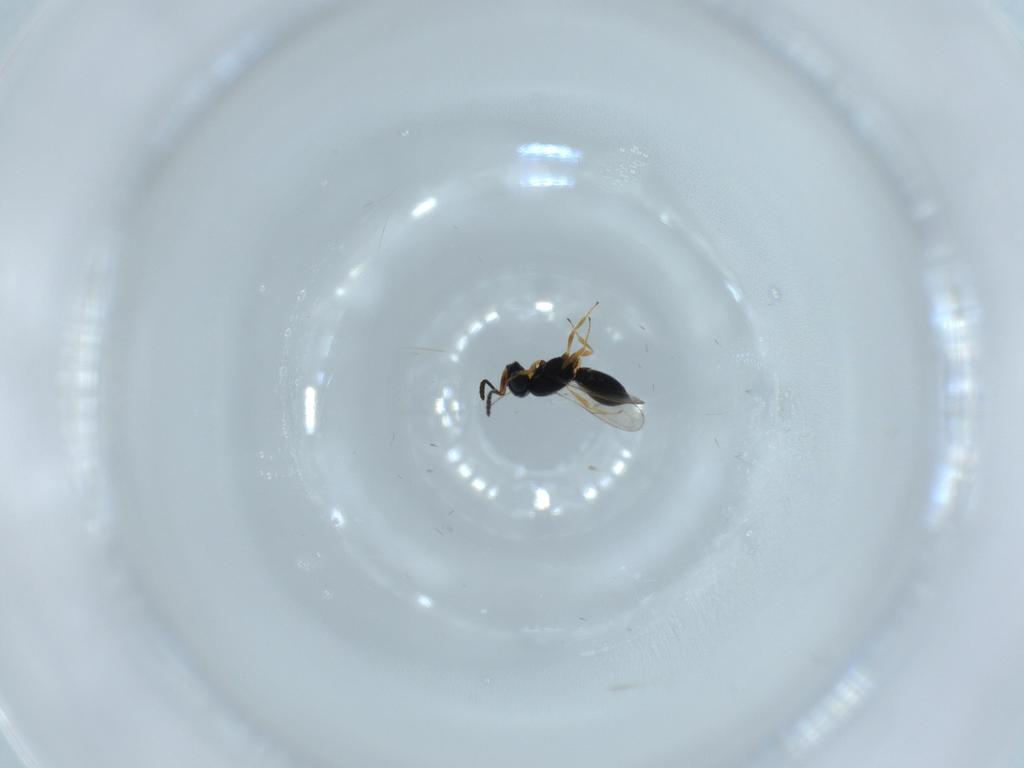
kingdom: Animalia
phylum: Arthropoda
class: Insecta
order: Hymenoptera
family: Scelionidae
